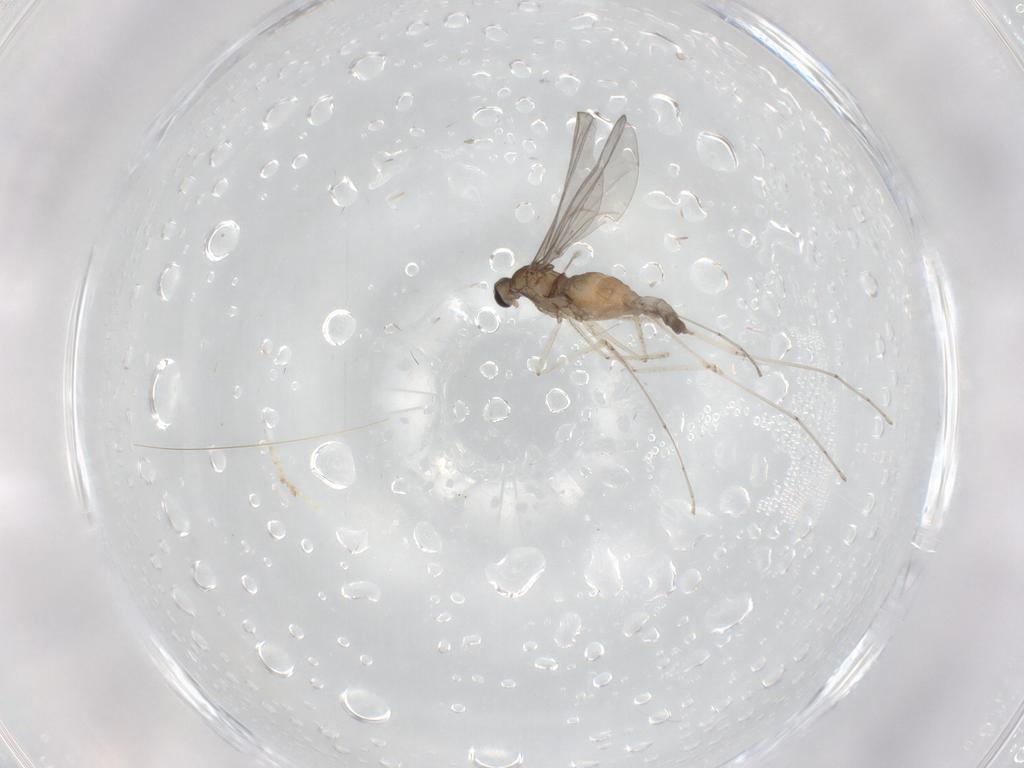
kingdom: Animalia
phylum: Arthropoda
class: Insecta
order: Diptera
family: Cecidomyiidae
